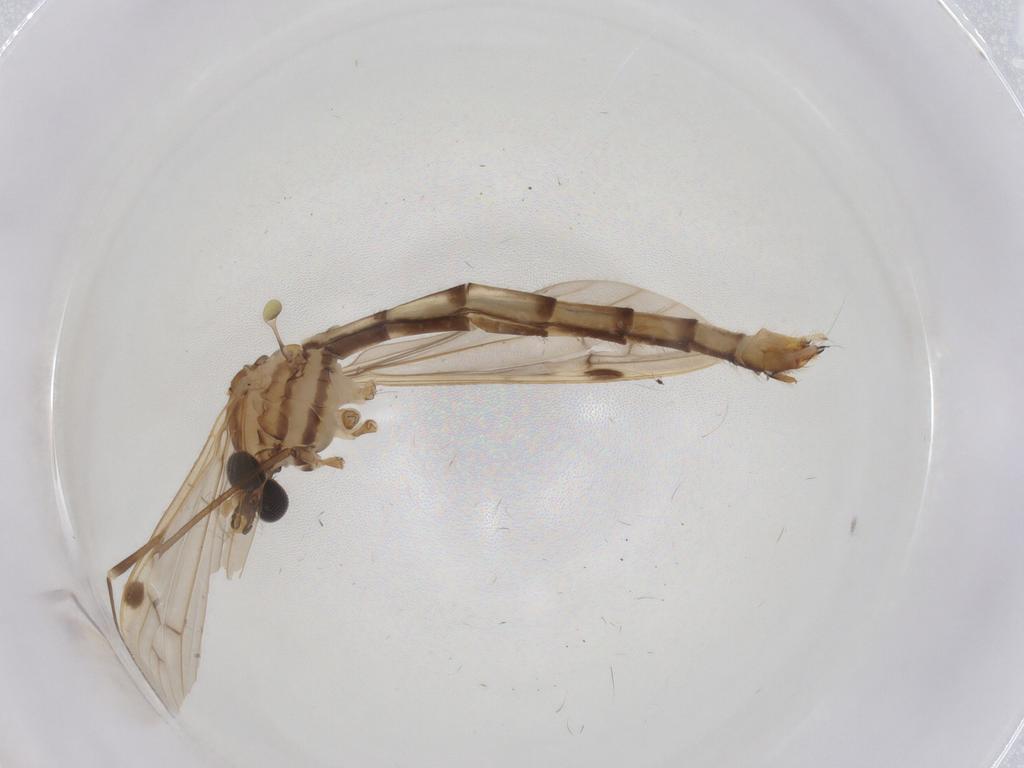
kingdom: Animalia
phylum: Arthropoda
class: Insecta
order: Diptera
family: Limoniidae
